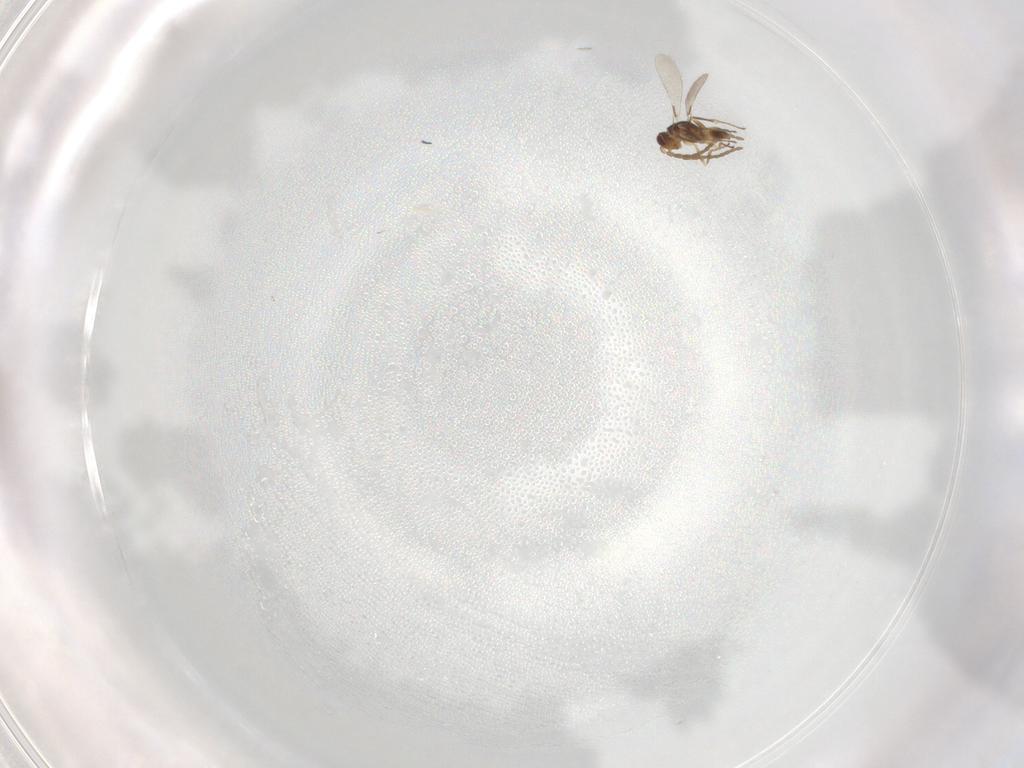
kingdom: Animalia
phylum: Arthropoda
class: Insecta
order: Hymenoptera
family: Mymaridae
